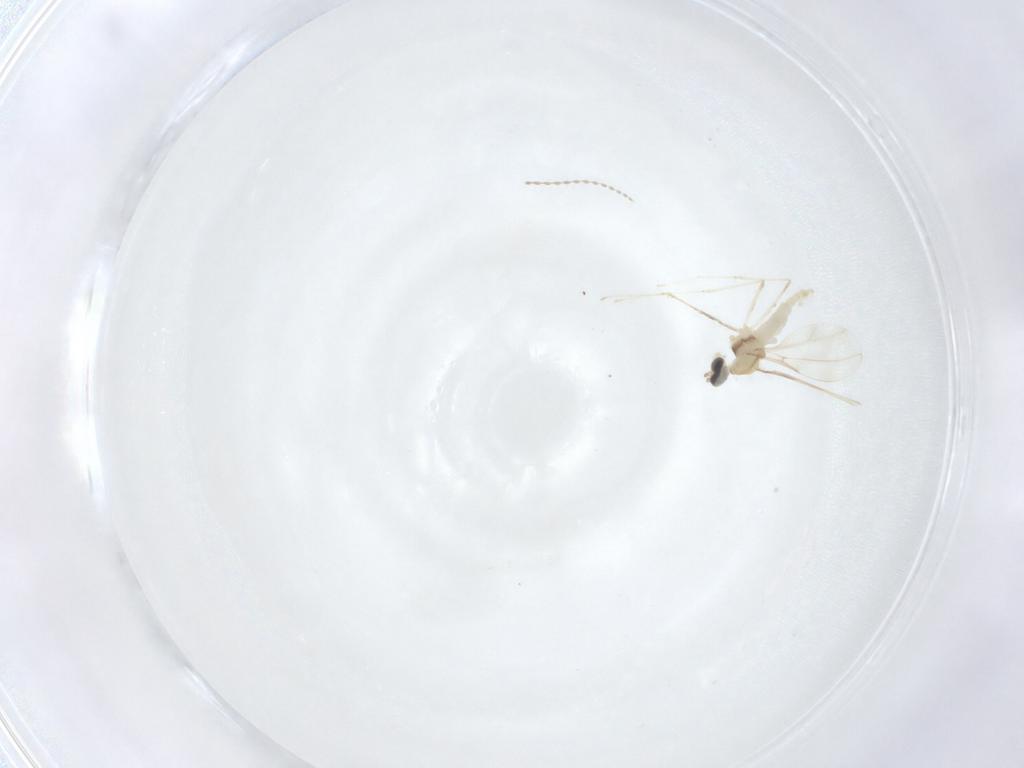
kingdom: Animalia
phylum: Arthropoda
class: Insecta
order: Diptera
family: Cecidomyiidae
